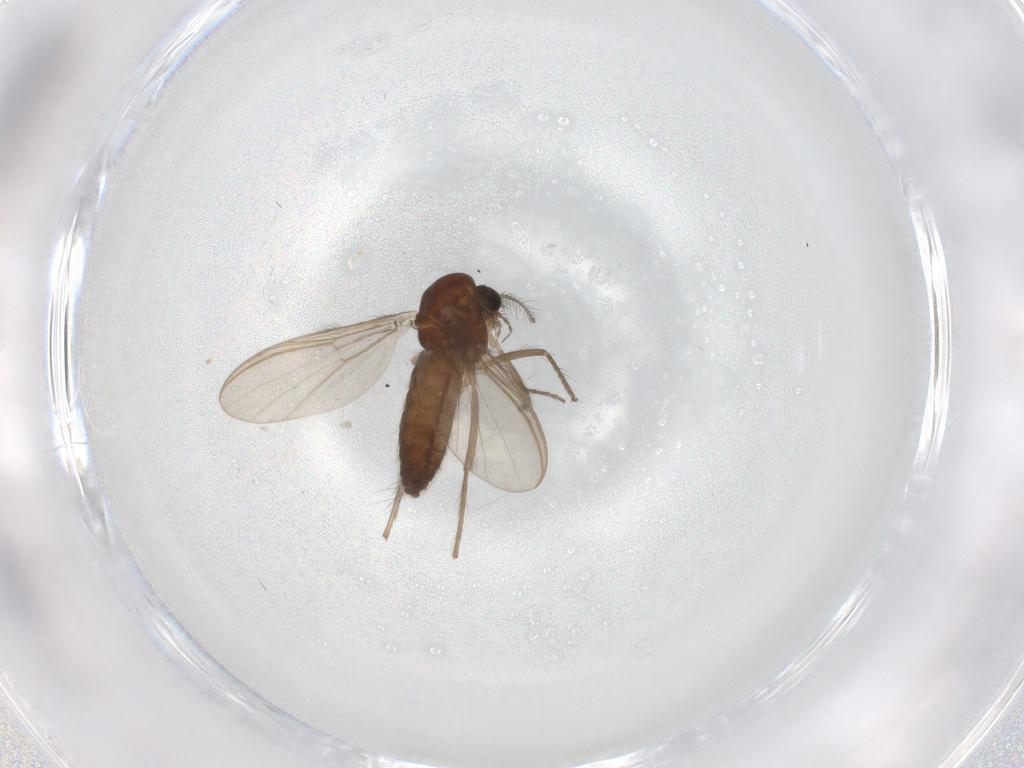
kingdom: Animalia
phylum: Arthropoda
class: Insecta
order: Diptera
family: Chironomidae
